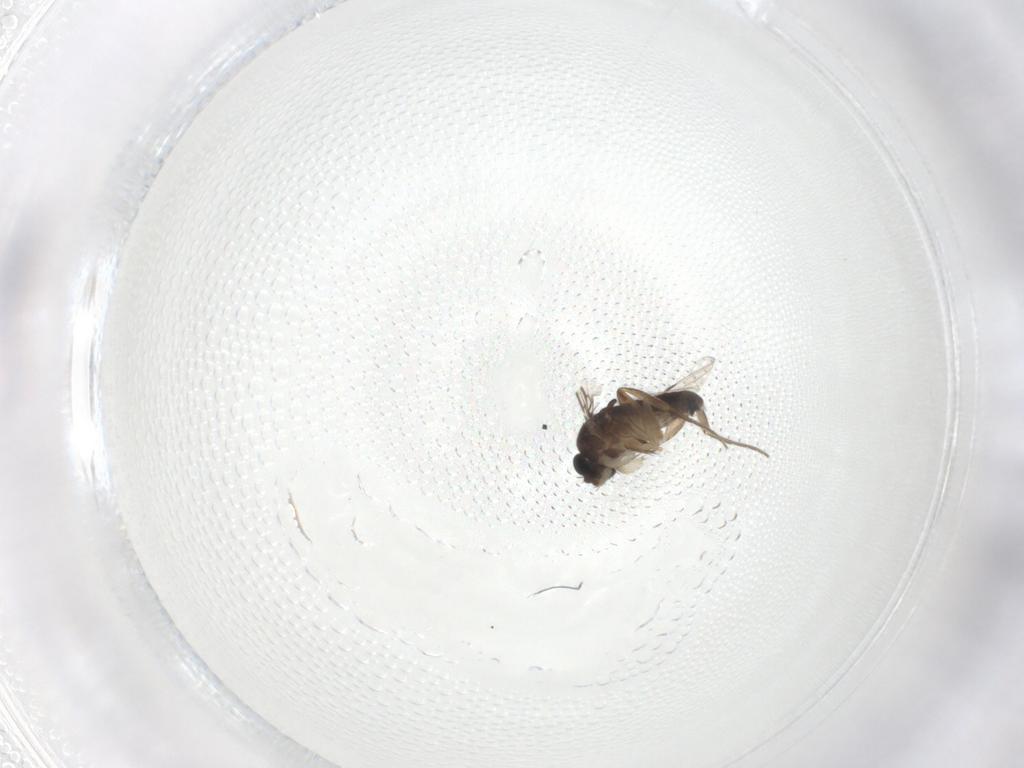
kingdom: Animalia
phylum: Arthropoda
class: Insecta
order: Diptera
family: Phoridae
